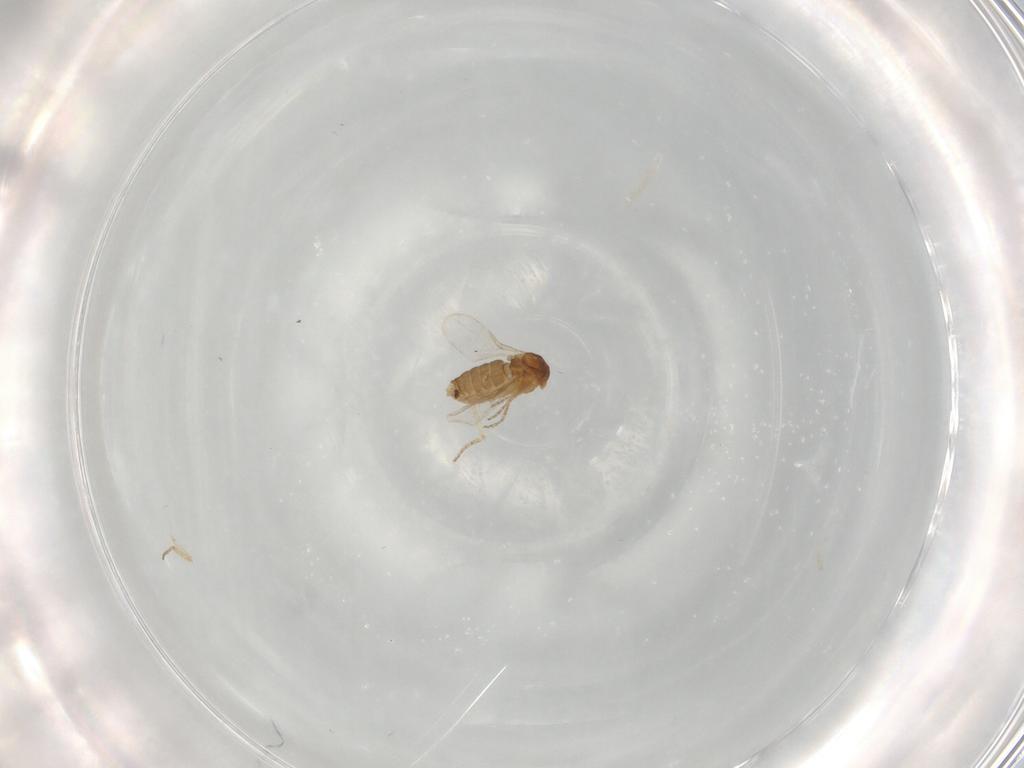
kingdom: Animalia
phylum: Arthropoda
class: Insecta
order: Diptera
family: Ceratopogonidae
